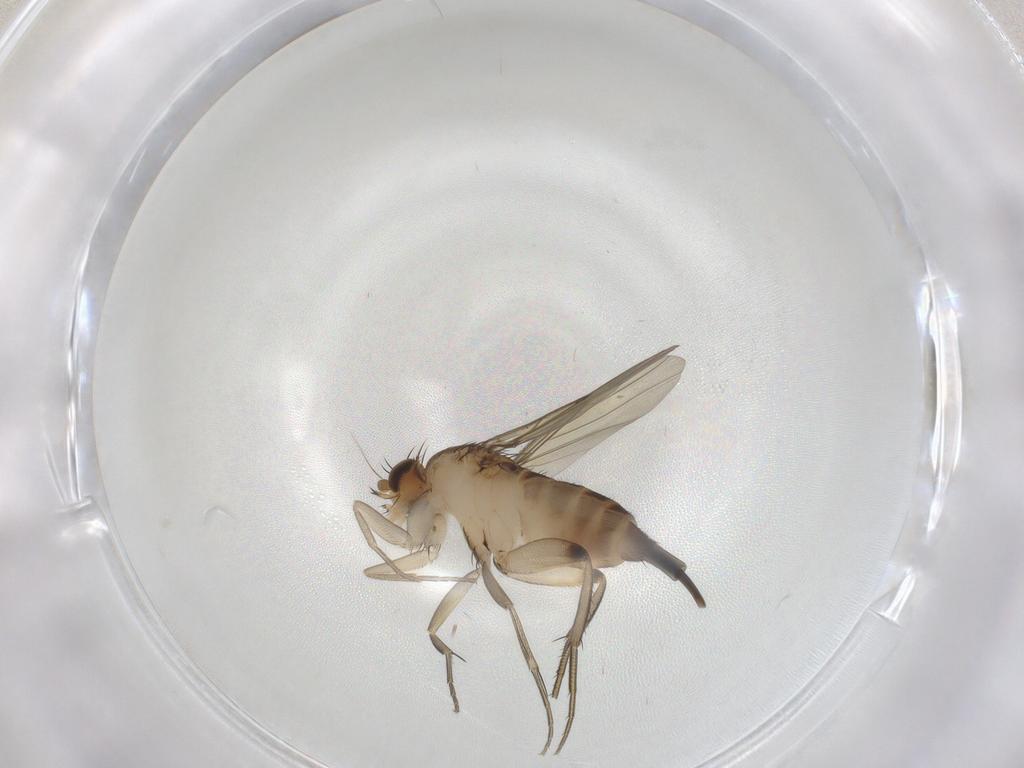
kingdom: Animalia
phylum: Arthropoda
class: Insecta
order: Diptera
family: Phoridae
